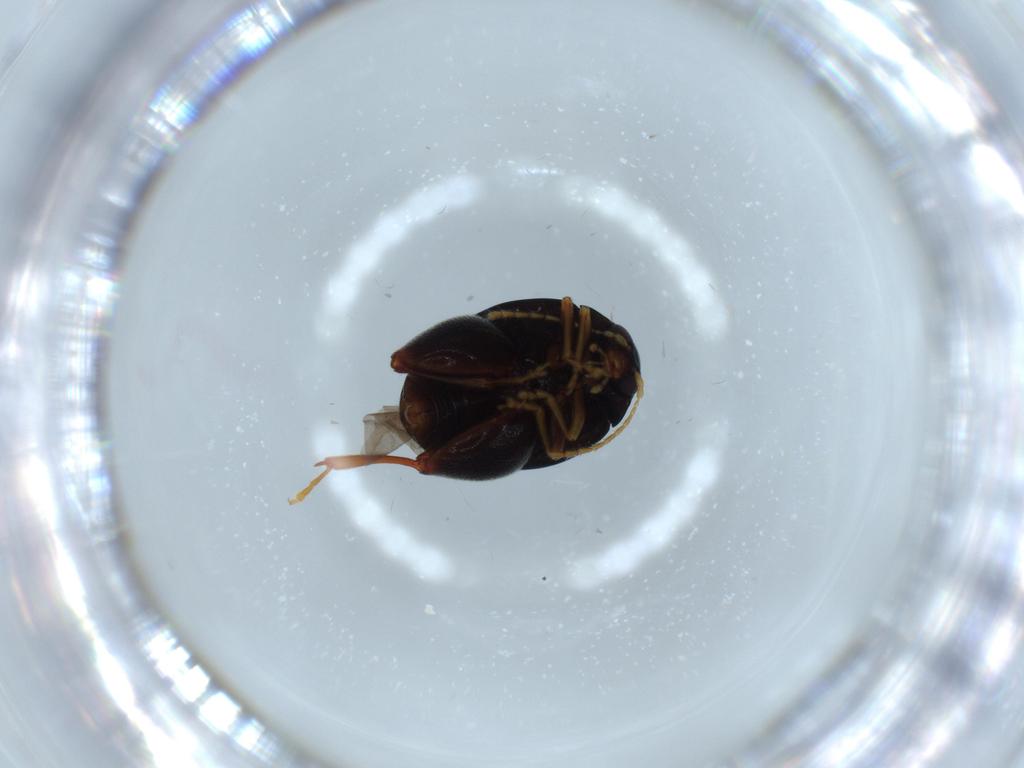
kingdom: Animalia
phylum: Arthropoda
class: Insecta
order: Coleoptera
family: Chrysomelidae
